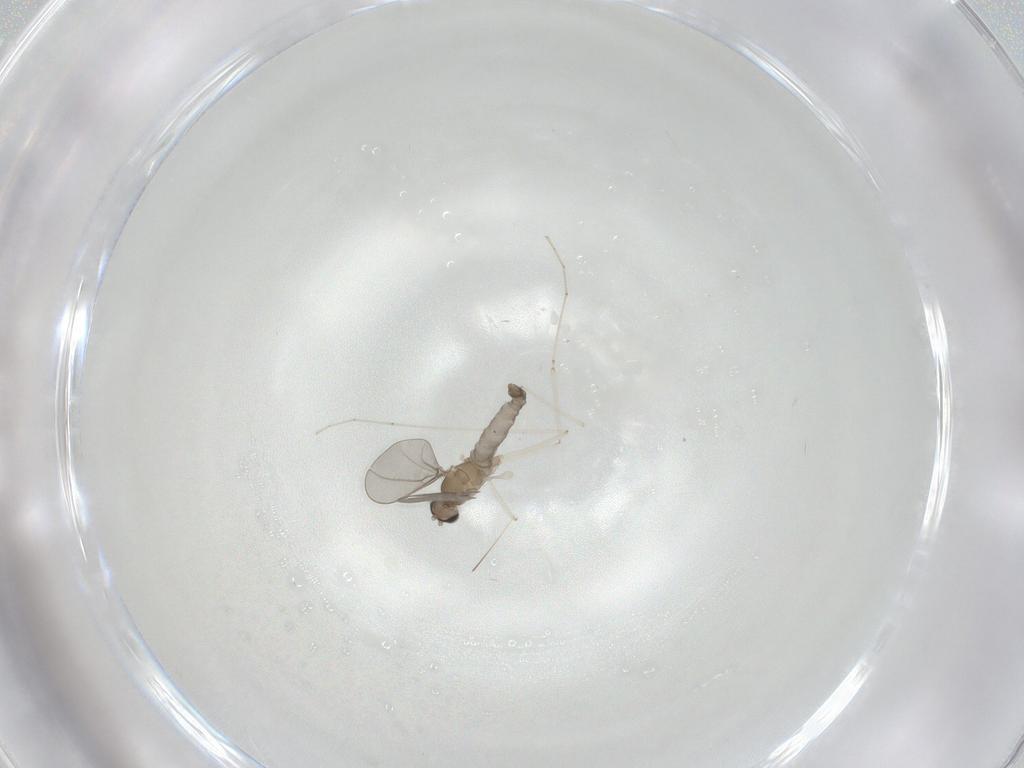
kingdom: Animalia
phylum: Arthropoda
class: Insecta
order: Diptera
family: Cecidomyiidae
